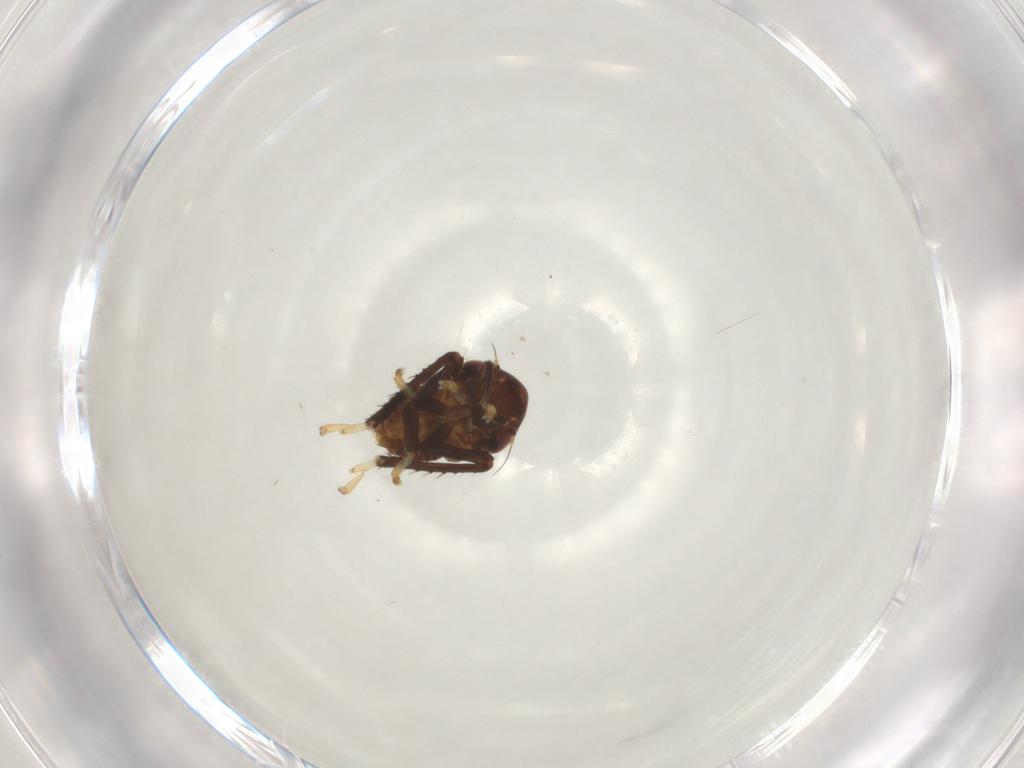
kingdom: Animalia
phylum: Arthropoda
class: Insecta
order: Hemiptera
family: Cicadellidae
